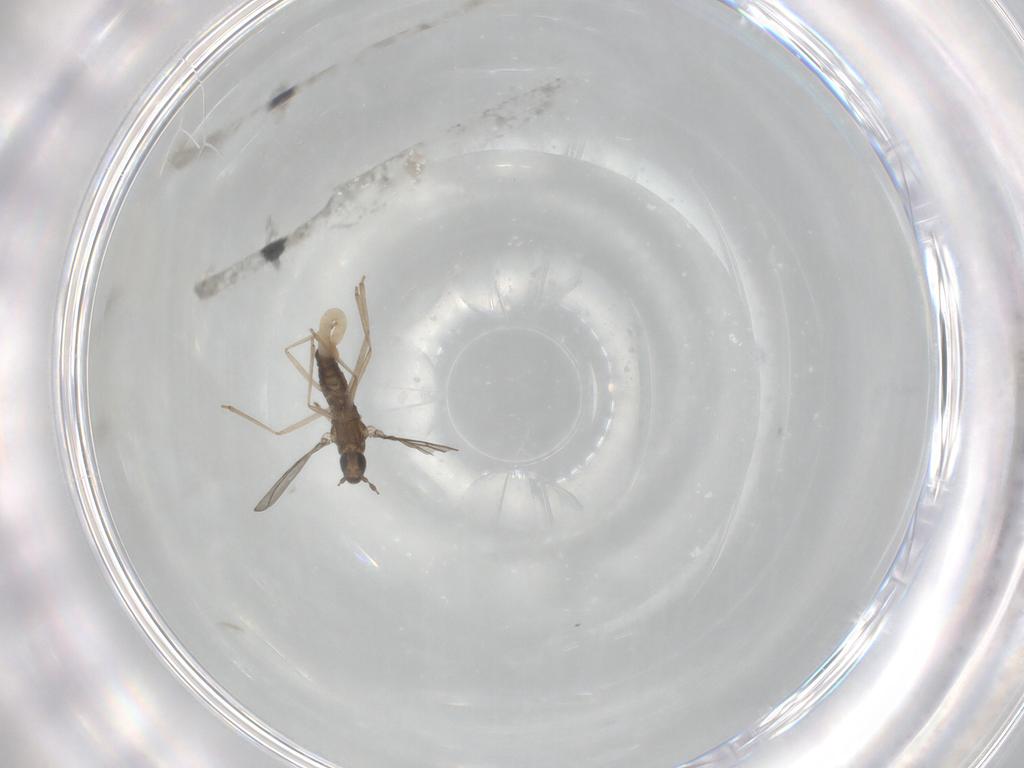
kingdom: Animalia
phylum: Arthropoda
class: Insecta
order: Diptera
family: Cecidomyiidae
